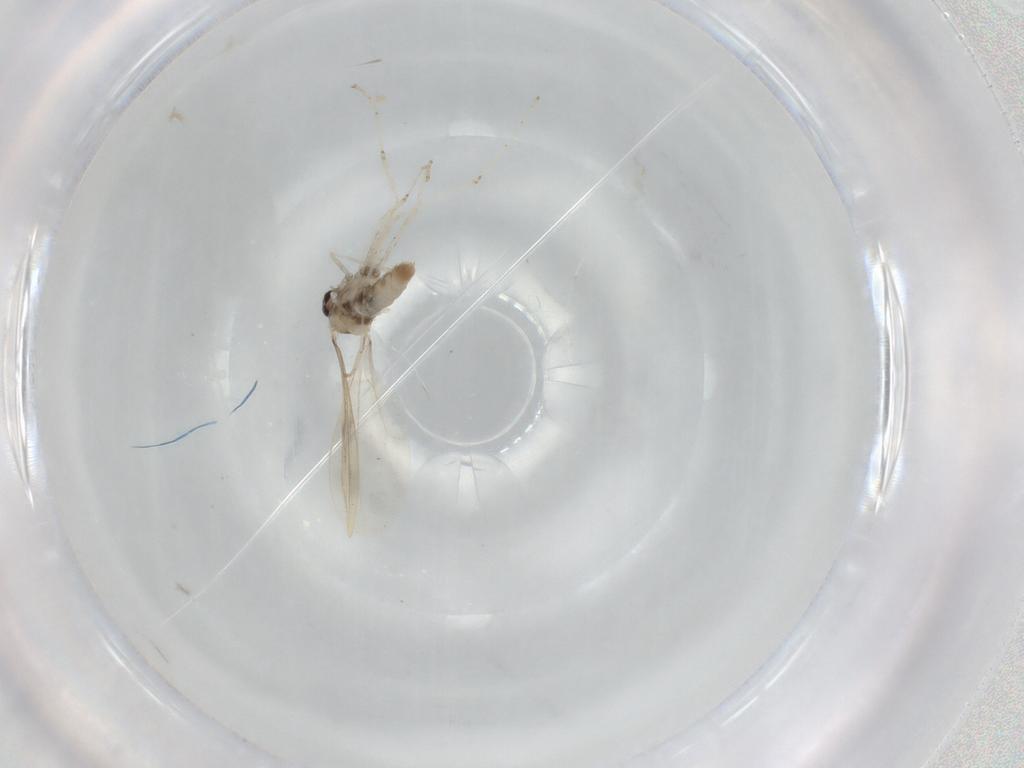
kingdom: Animalia
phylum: Arthropoda
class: Insecta
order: Diptera
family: Cecidomyiidae
